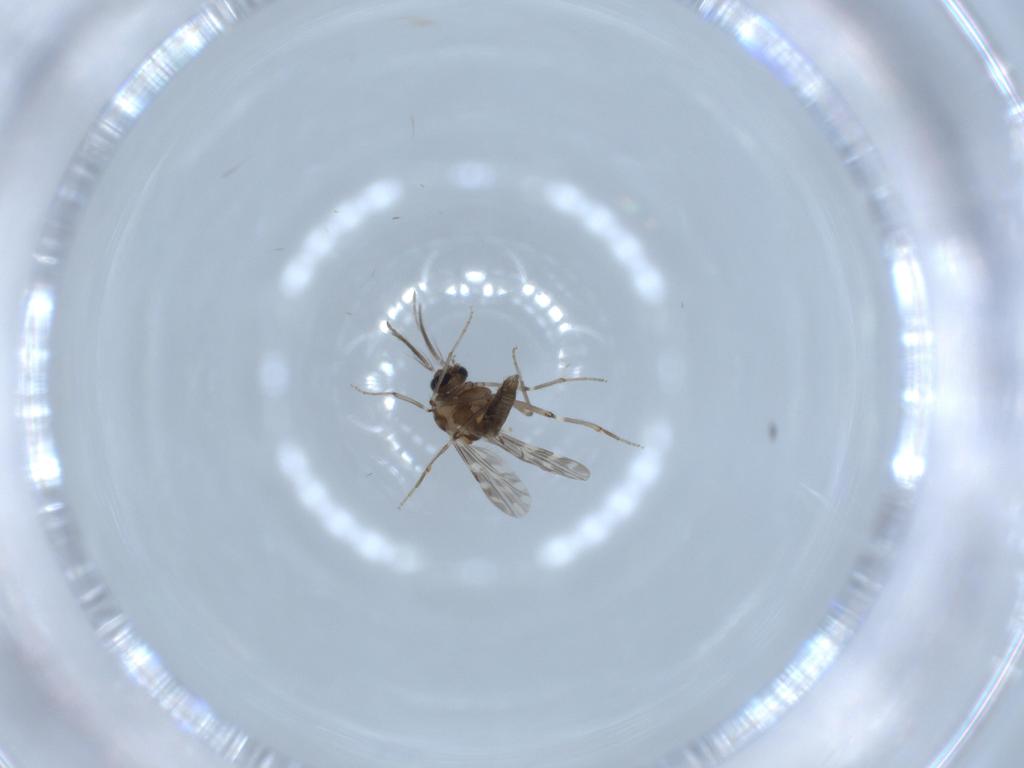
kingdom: Animalia
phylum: Arthropoda
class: Insecta
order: Diptera
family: Ceratopogonidae
